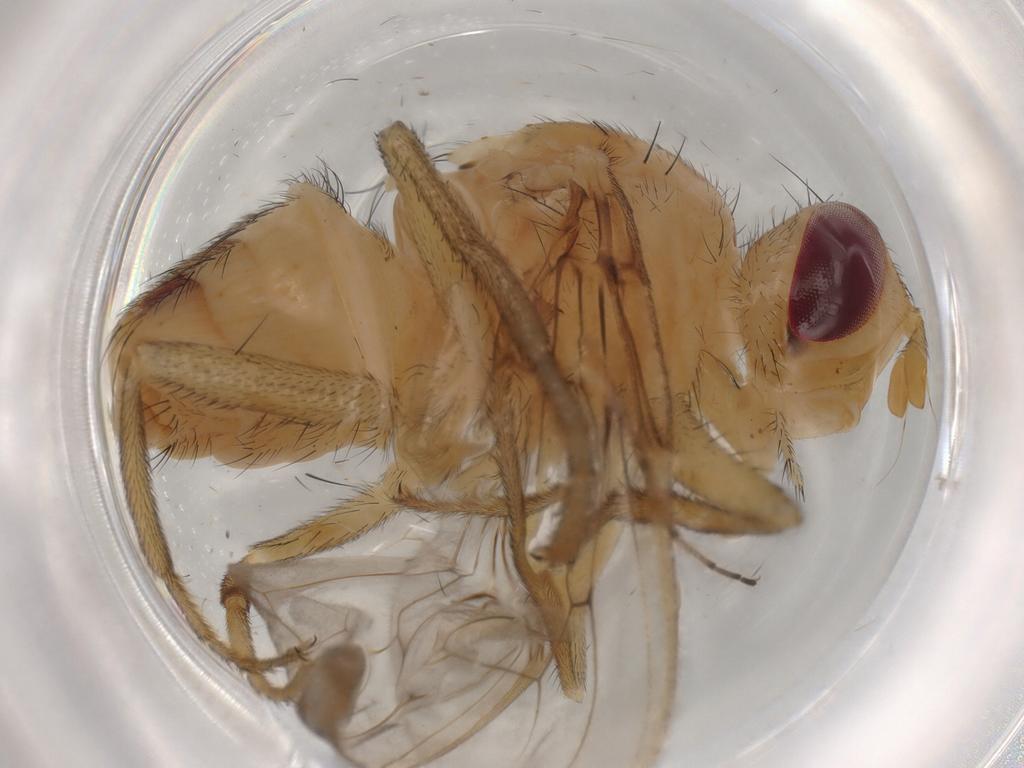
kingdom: Animalia
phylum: Arthropoda
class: Insecta
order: Diptera
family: Pyrgotidae
